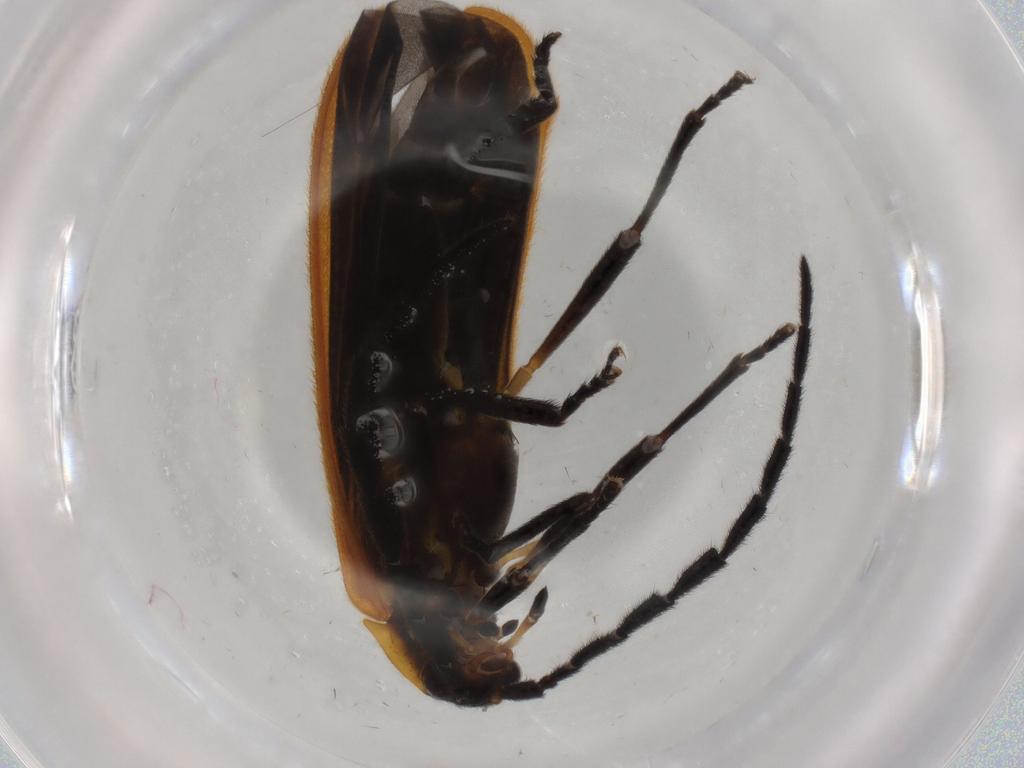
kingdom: Animalia
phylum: Arthropoda
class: Insecta
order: Coleoptera
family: Lycidae
